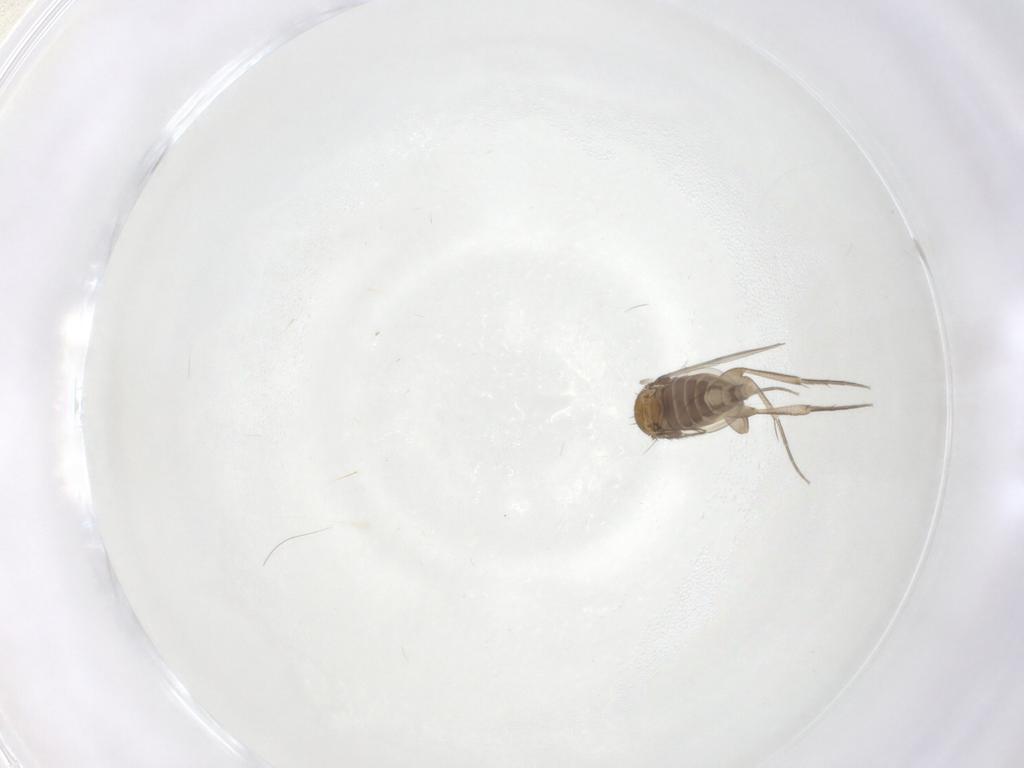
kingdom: Animalia
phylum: Arthropoda
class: Insecta
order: Diptera
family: Phoridae
